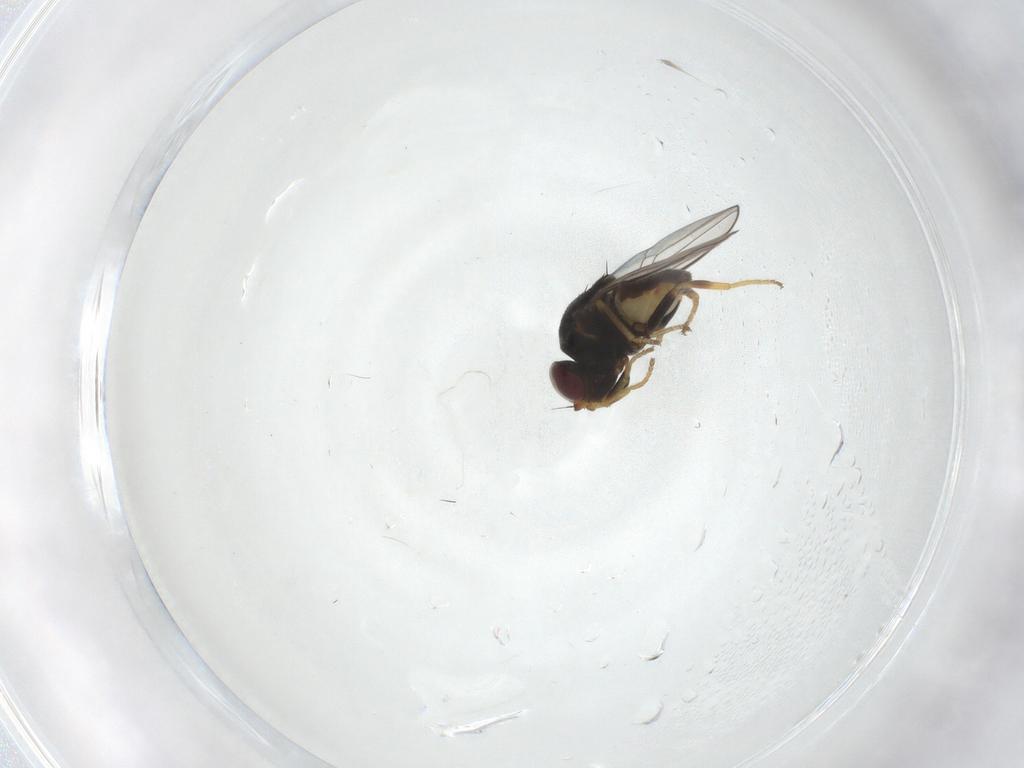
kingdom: Animalia
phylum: Arthropoda
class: Insecta
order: Diptera
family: Chloropidae
